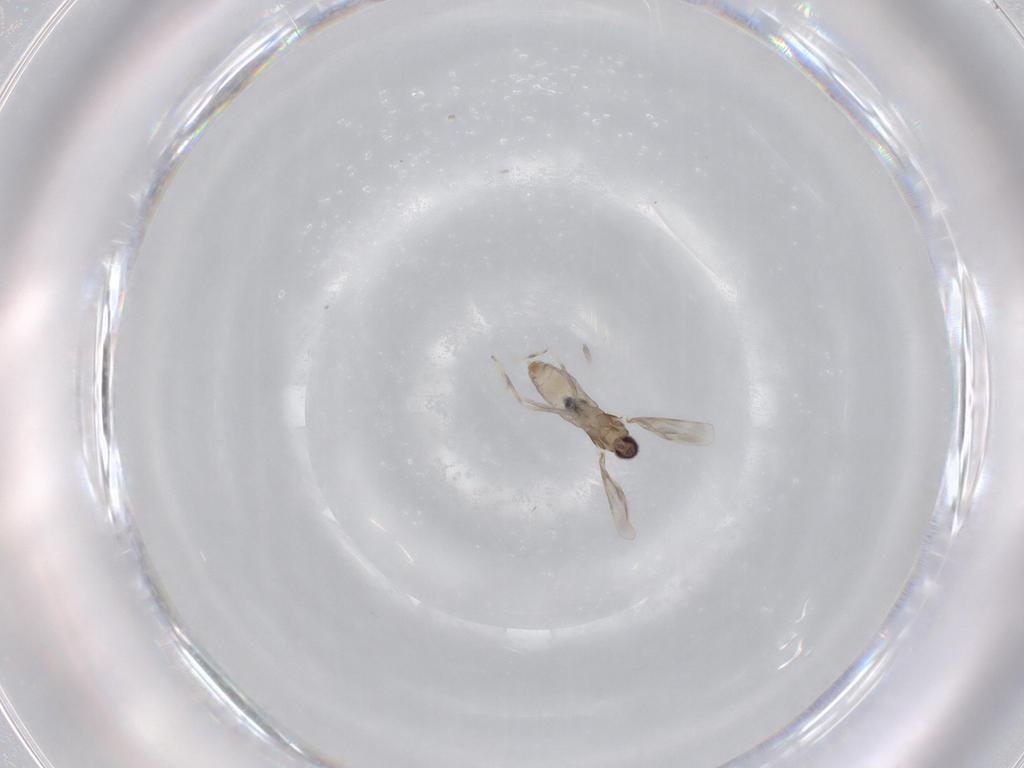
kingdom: Animalia
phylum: Arthropoda
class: Insecta
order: Diptera
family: Cecidomyiidae
